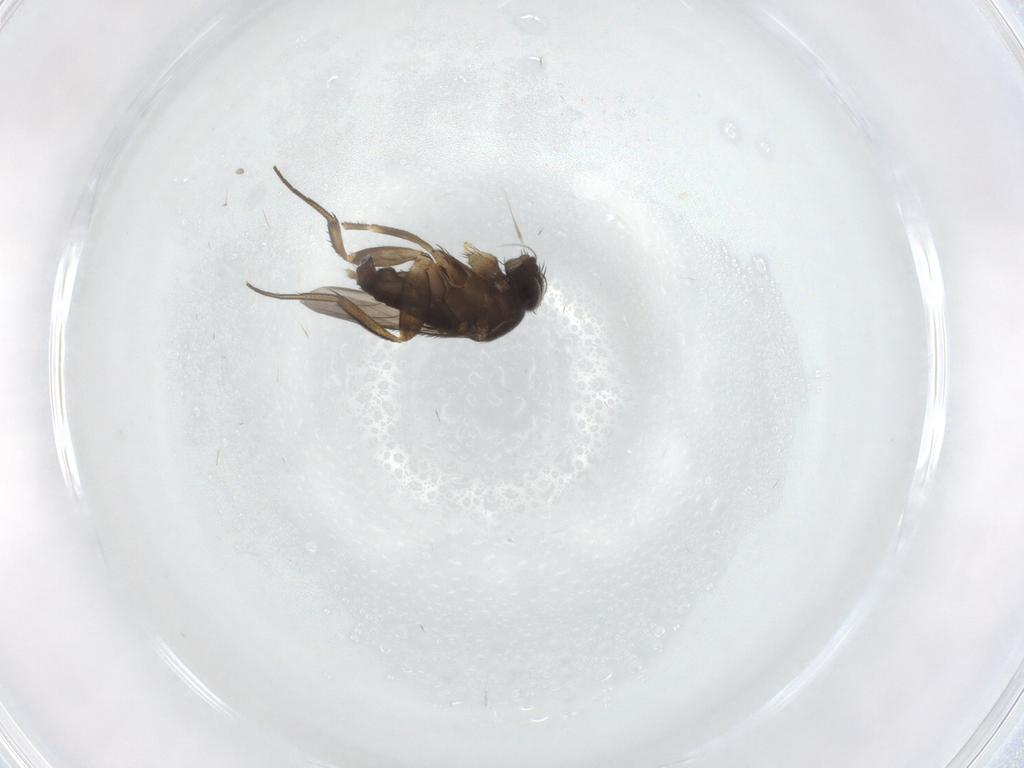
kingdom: Animalia
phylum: Arthropoda
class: Insecta
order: Diptera
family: Phoridae
